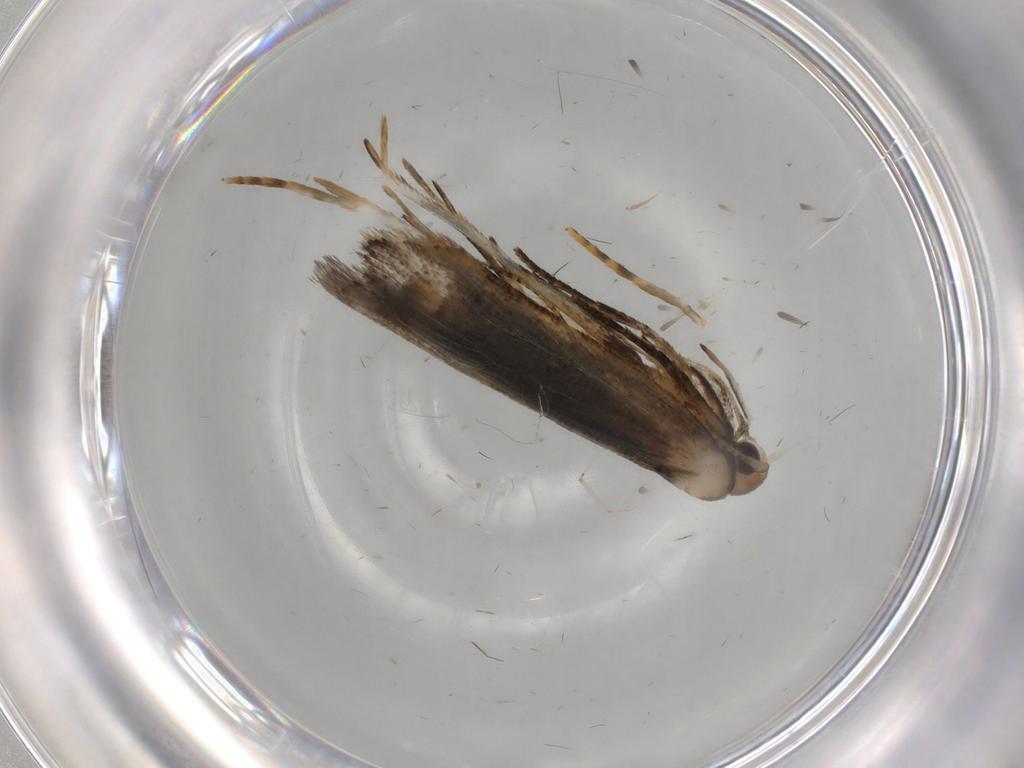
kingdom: Animalia
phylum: Arthropoda
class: Insecta
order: Lepidoptera
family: Gelechiidae
